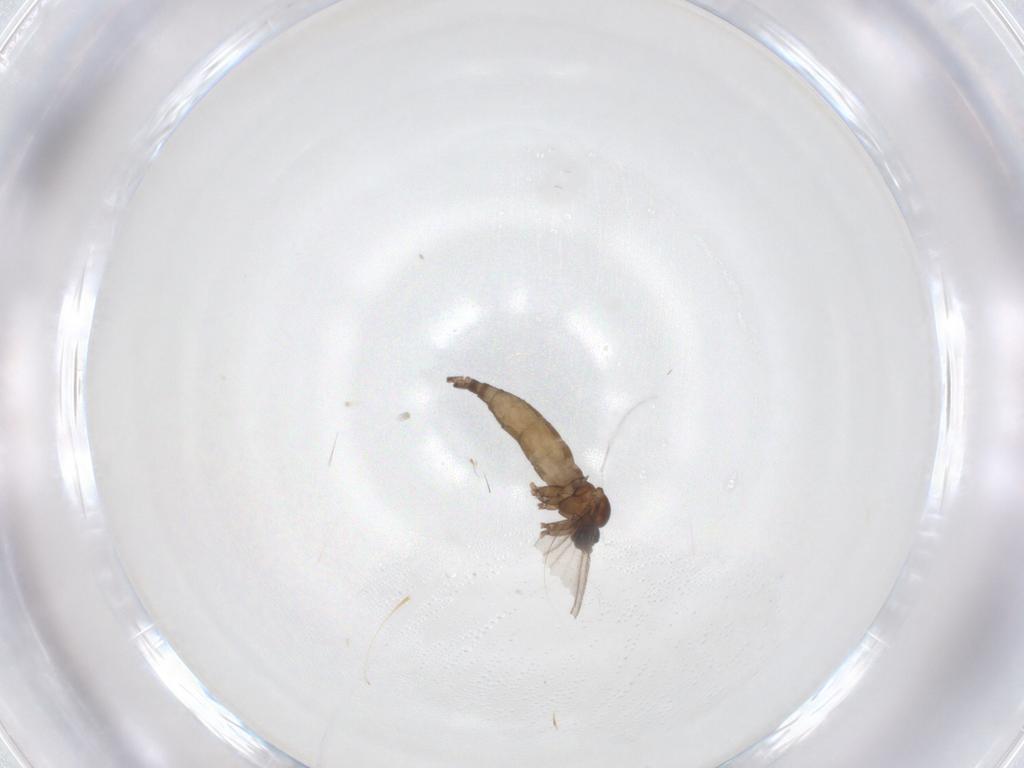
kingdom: Animalia
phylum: Arthropoda
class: Insecta
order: Diptera
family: Sciaridae
